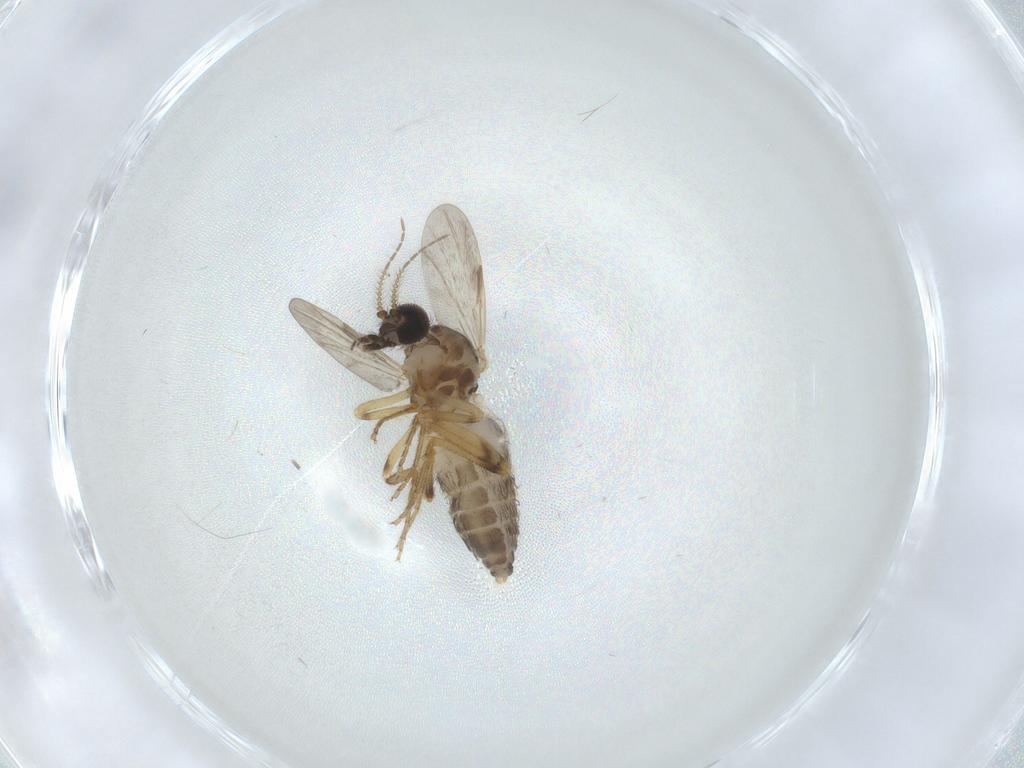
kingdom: Animalia
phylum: Arthropoda
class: Insecta
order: Diptera
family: Ceratopogonidae
